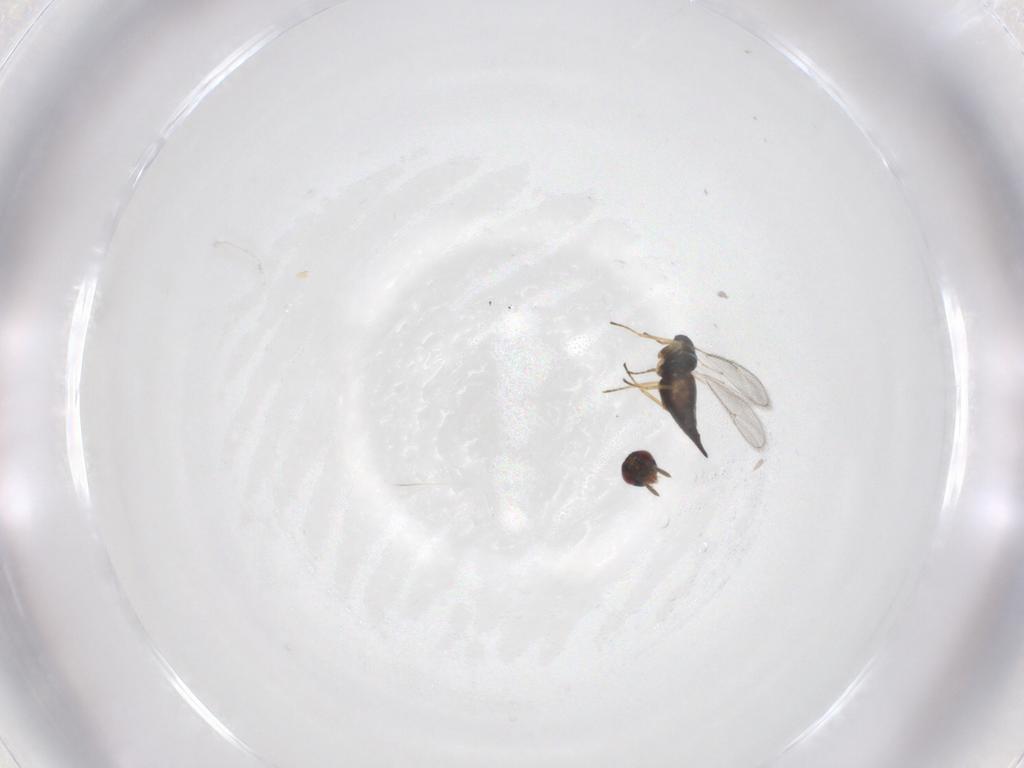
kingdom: Animalia
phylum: Arthropoda
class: Insecta
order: Hymenoptera
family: Eulophidae
